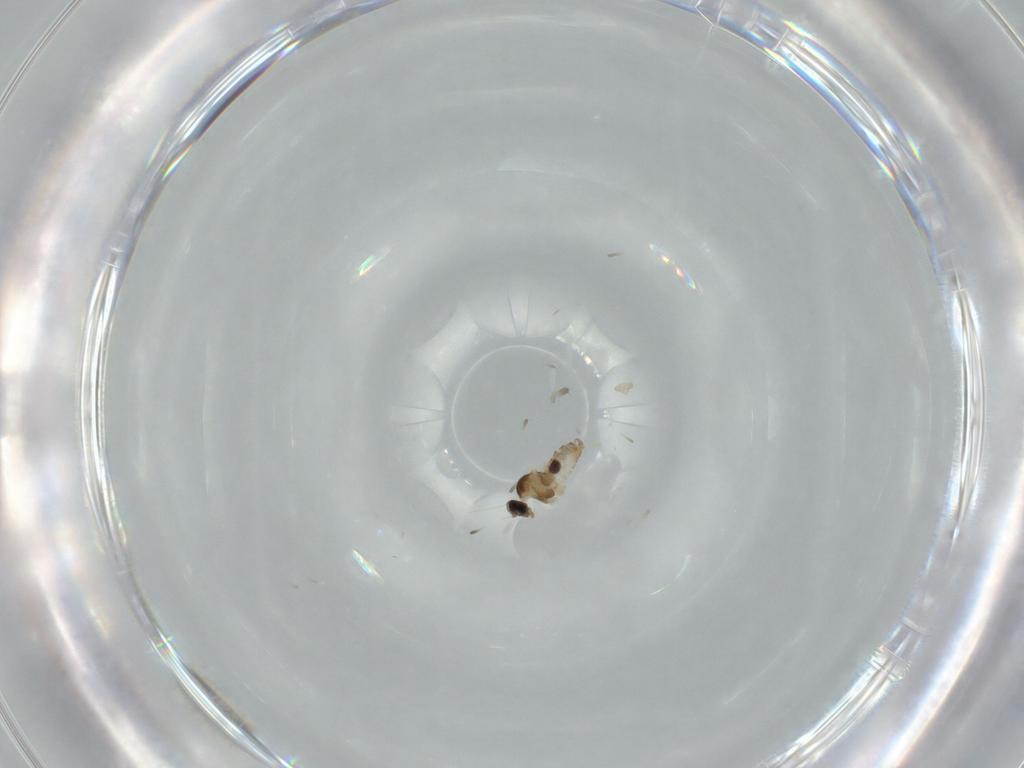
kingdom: Animalia
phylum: Arthropoda
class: Insecta
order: Diptera
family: Cecidomyiidae
